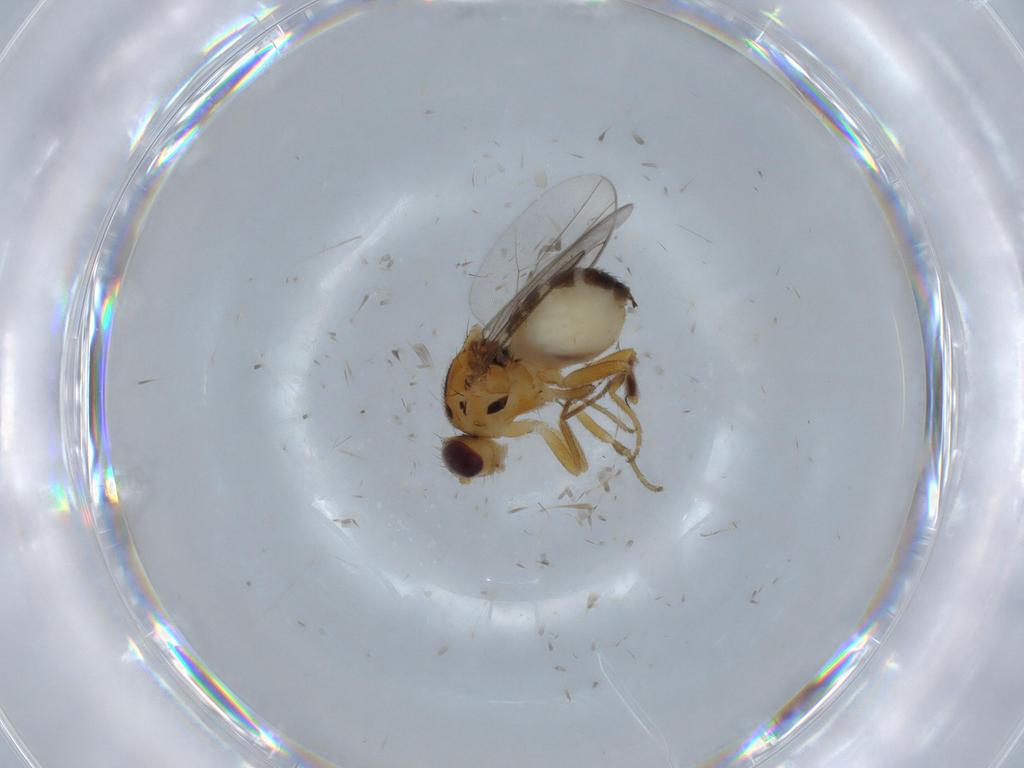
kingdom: Animalia
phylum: Arthropoda
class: Insecta
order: Diptera
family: Chloropidae
